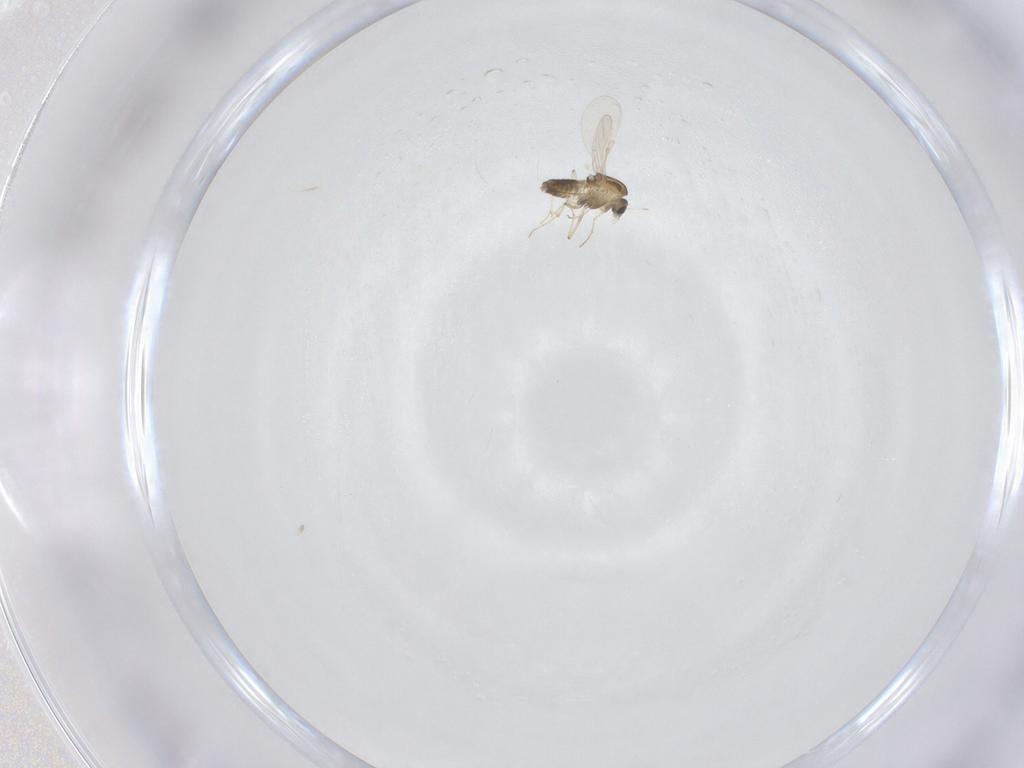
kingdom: Animalia
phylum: Arthropoda
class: Insecta
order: Diptera
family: Chironomidae
